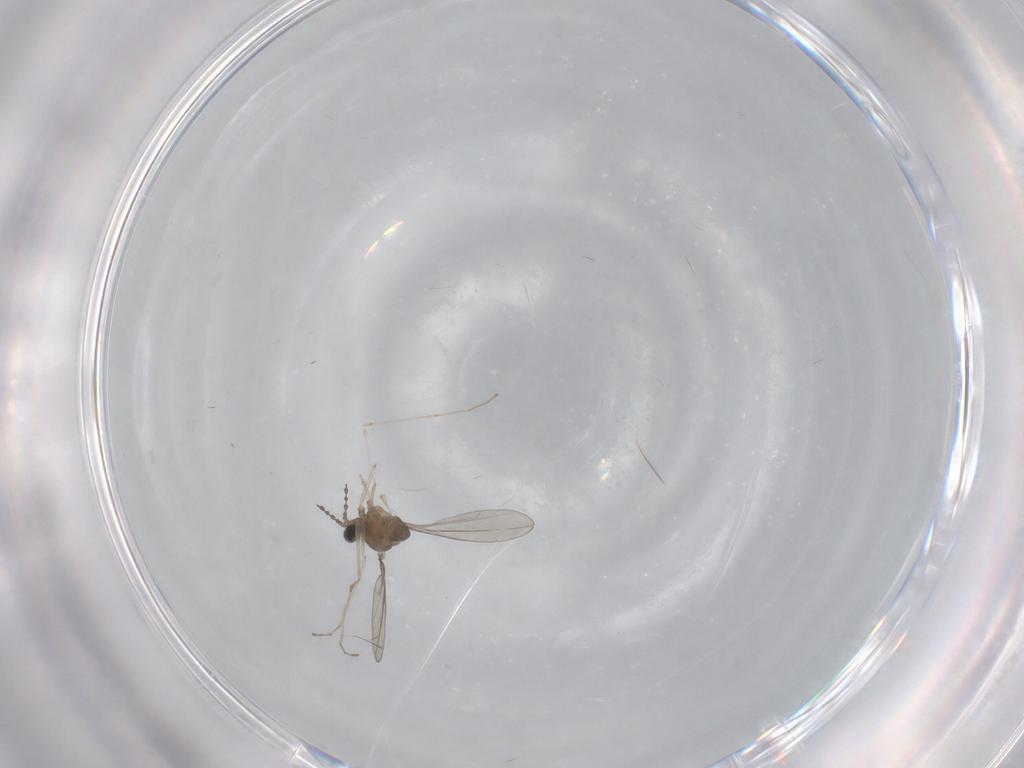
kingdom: Animalia
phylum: Arthropoda
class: Insecta
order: Diptera
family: Cecidomyiidae
